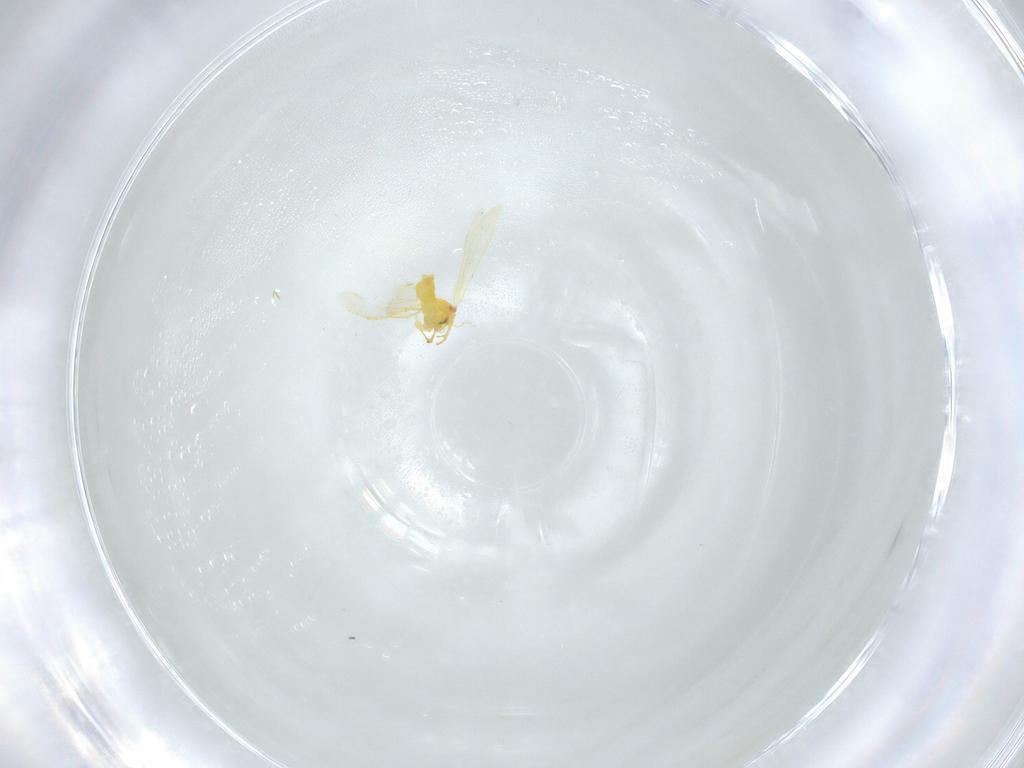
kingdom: Animalia
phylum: Arthropoda
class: Insecta
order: Hemiptera
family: Aleyrodidae
